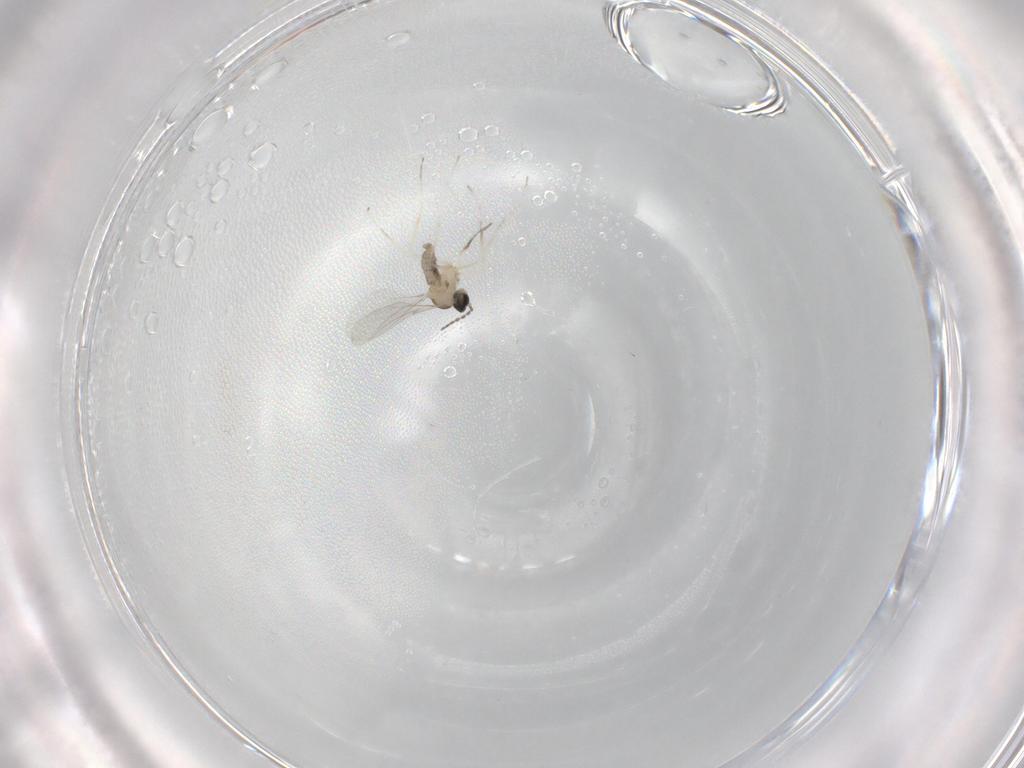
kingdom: Animalia
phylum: Arthropoda
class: Insecta
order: Diptera
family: Cecidomyiidae
